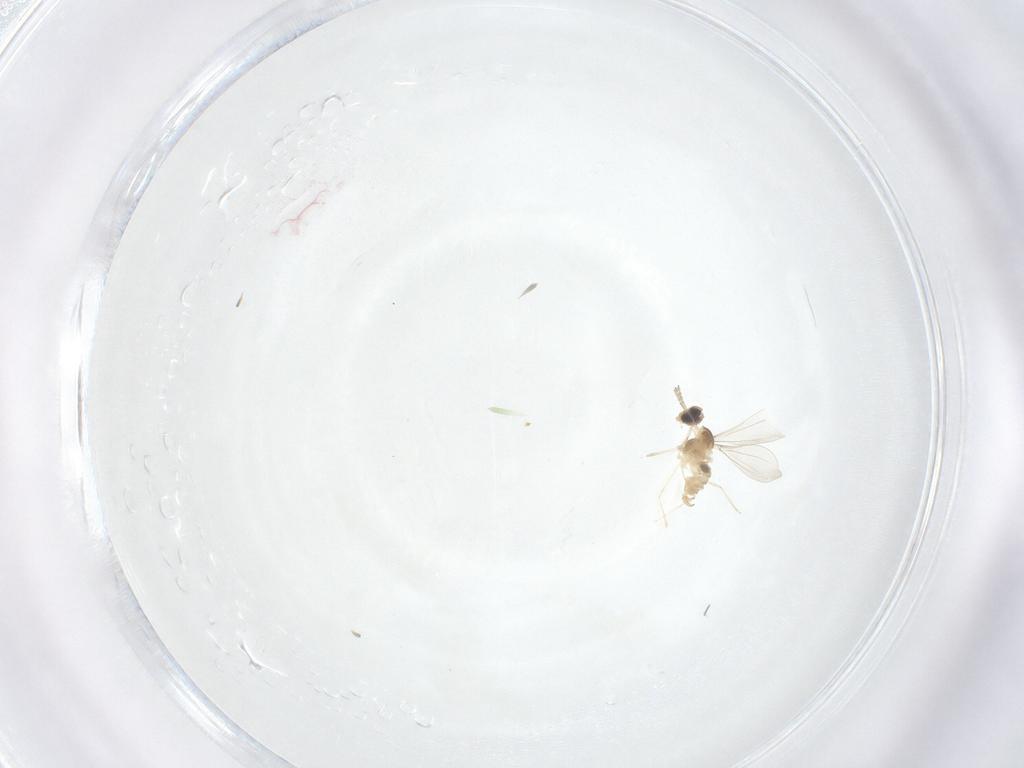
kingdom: Animalia
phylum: Arthropoda
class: Insecta
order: Diptera
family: Cecidomyiidae
